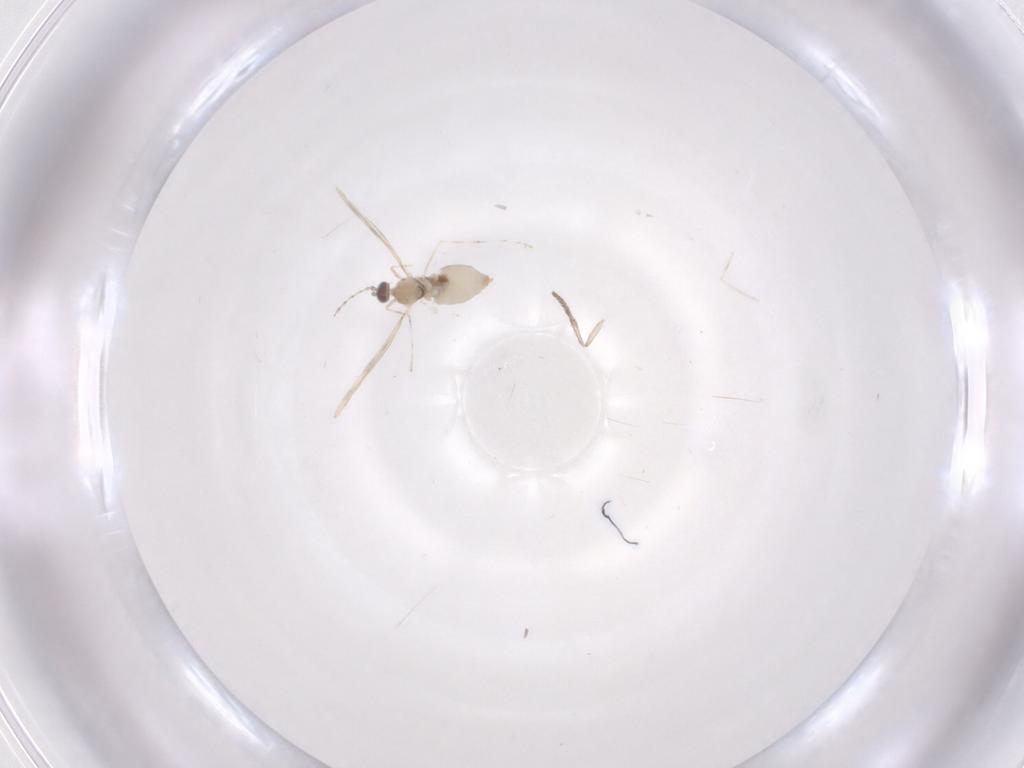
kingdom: Animalia
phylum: Arthropoda
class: Insecta
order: Diptera
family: Cecidomyiidae
